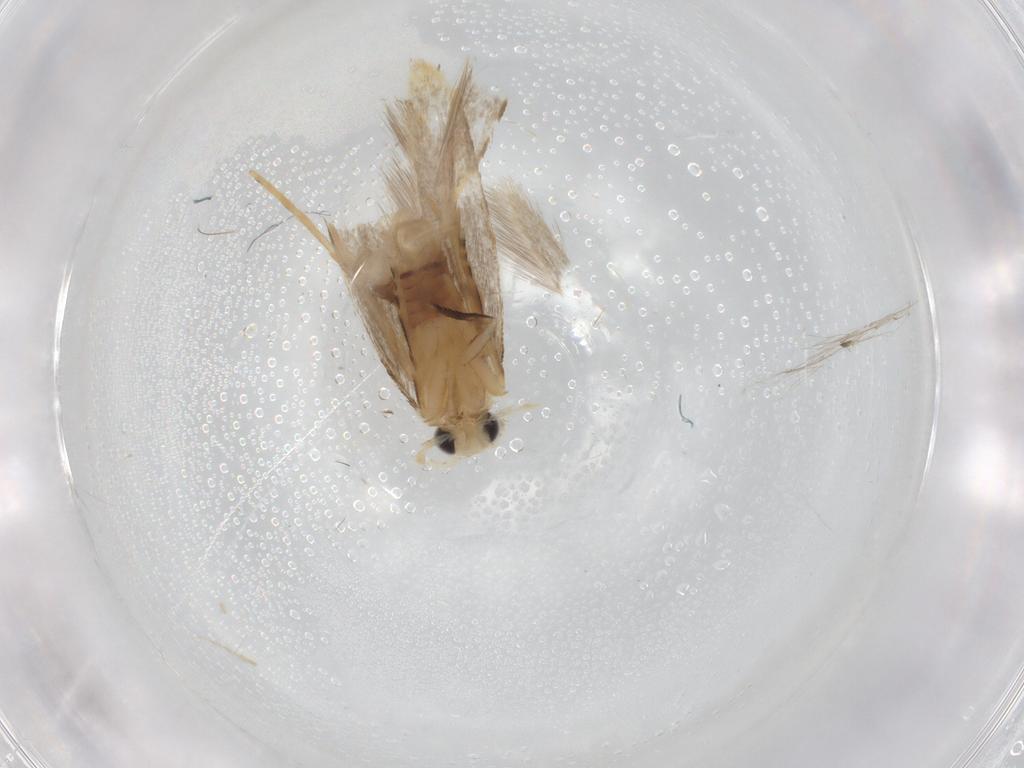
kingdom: Animalia
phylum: Arthropoda
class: Insecta
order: Lepidoptera
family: Dryadaulidae
